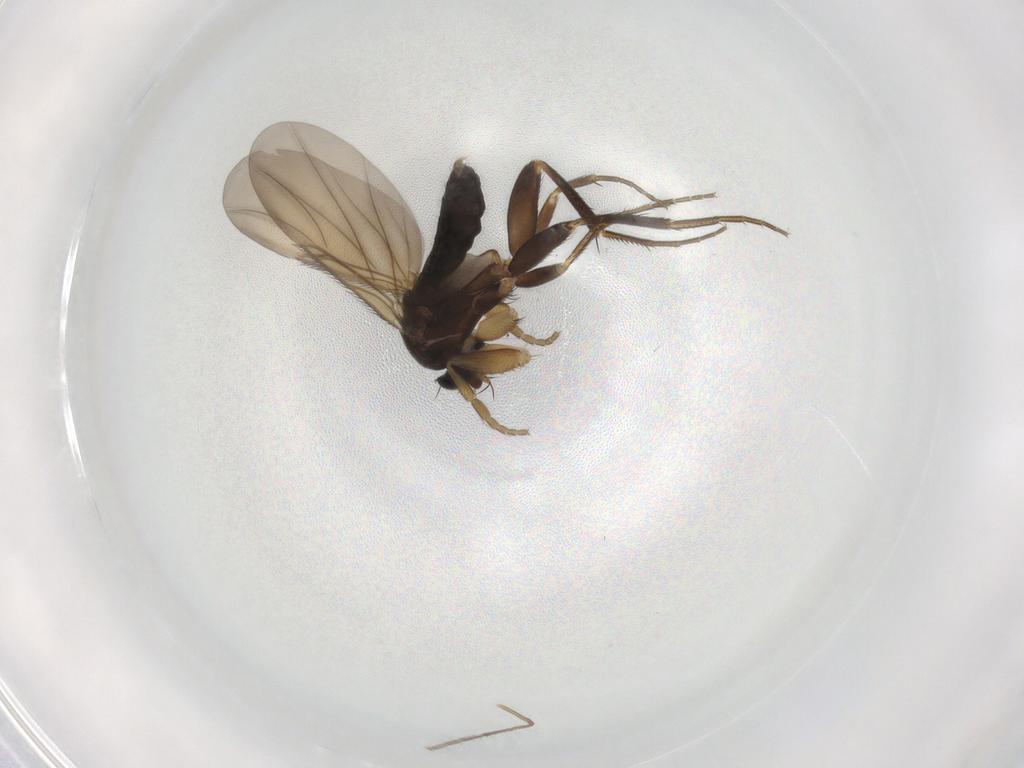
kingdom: Animalia
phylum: Arthropoda
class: Insecta
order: Diptera
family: Phoridae
